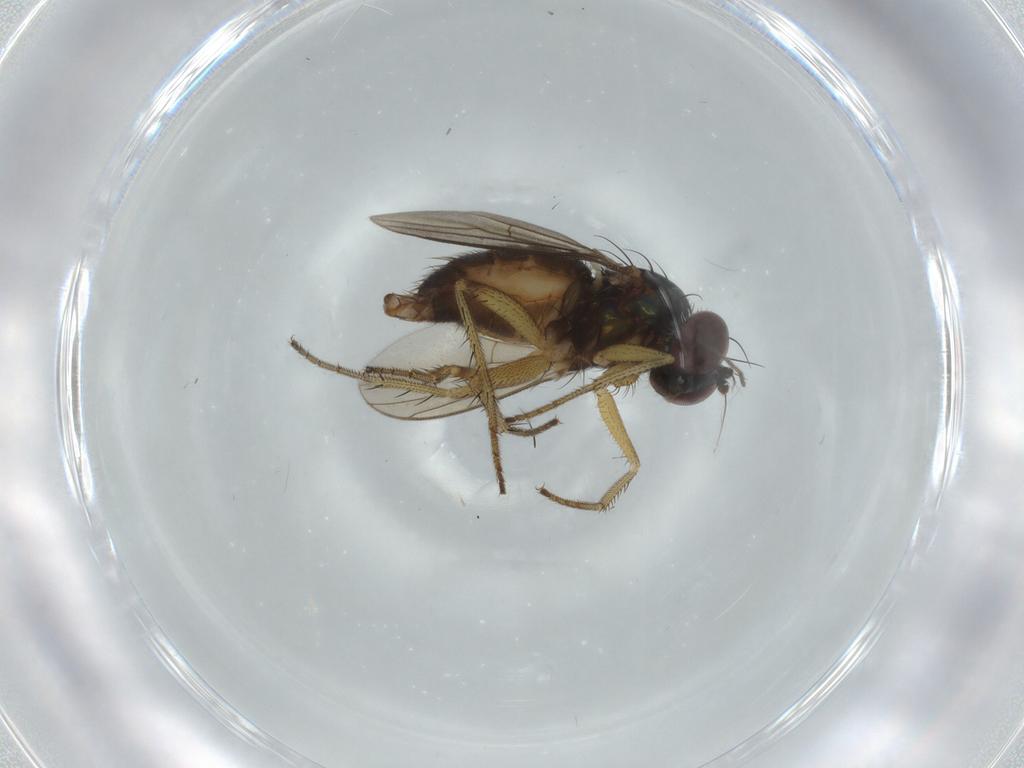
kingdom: Animalia
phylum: Arthropoda
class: Insecta
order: Diptera
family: Dolichopodidae
